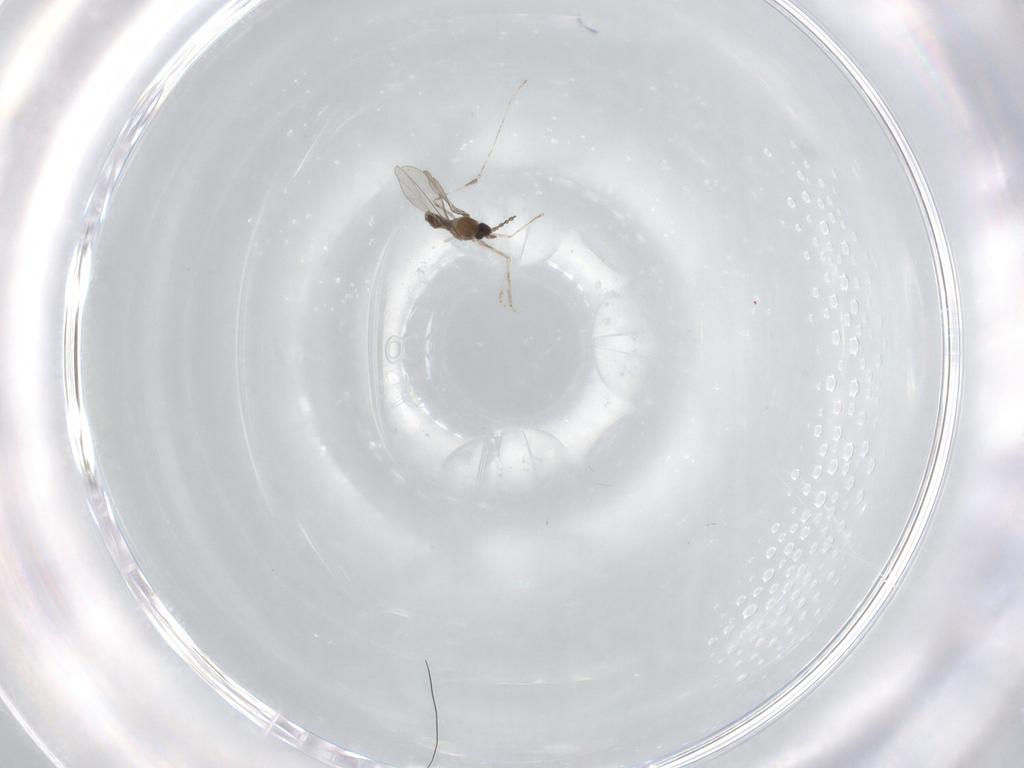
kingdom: Animalia
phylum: Arthropoda
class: Insecta
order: Diptera
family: Cecidomyiidae
